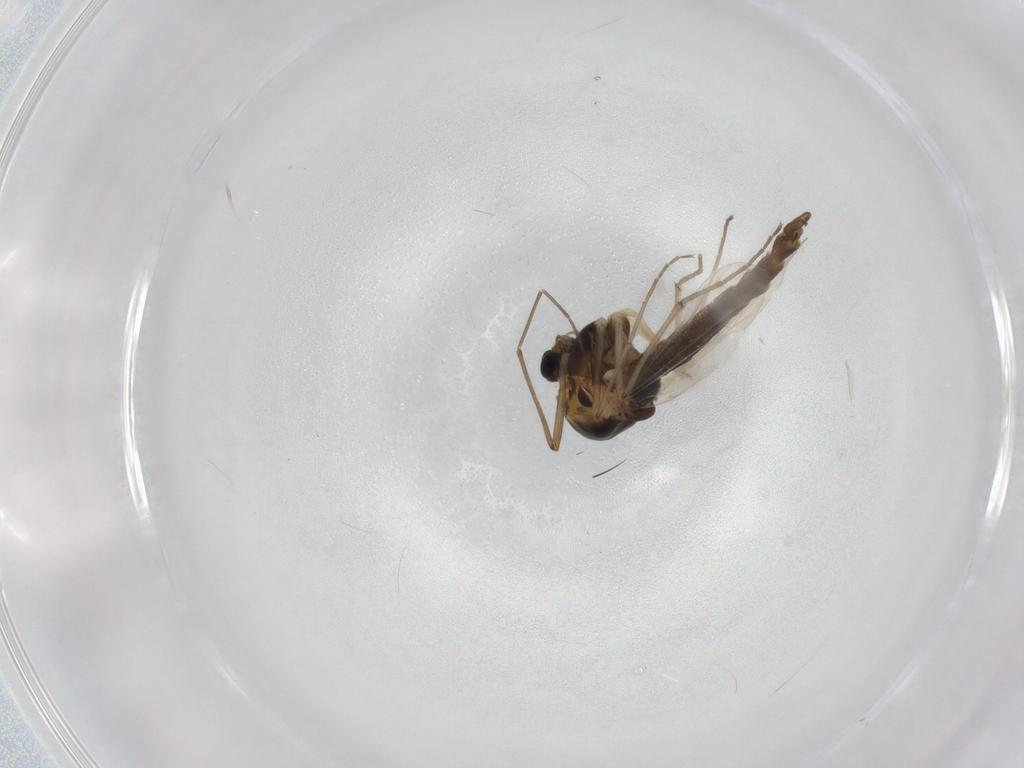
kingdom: Animalia
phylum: Arthropoda
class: Insecta
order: Diptera
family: Chironomidae
